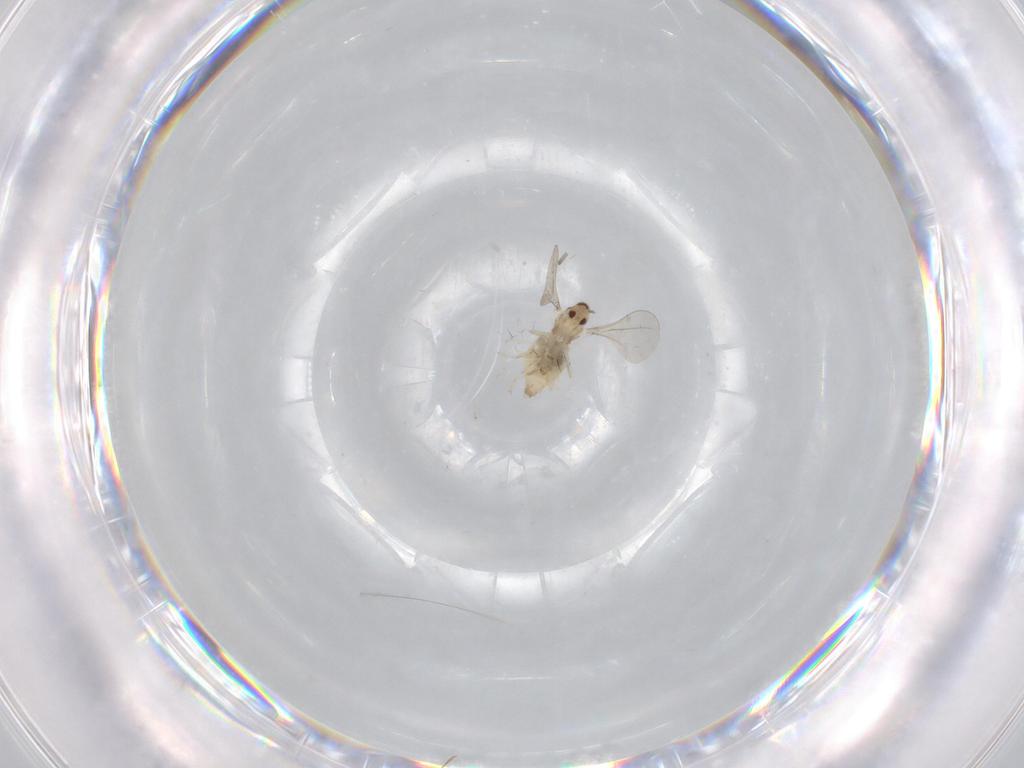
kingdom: Animalia
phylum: Arthropoda
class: Insecta
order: Diptera
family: Cecidomyiidae
